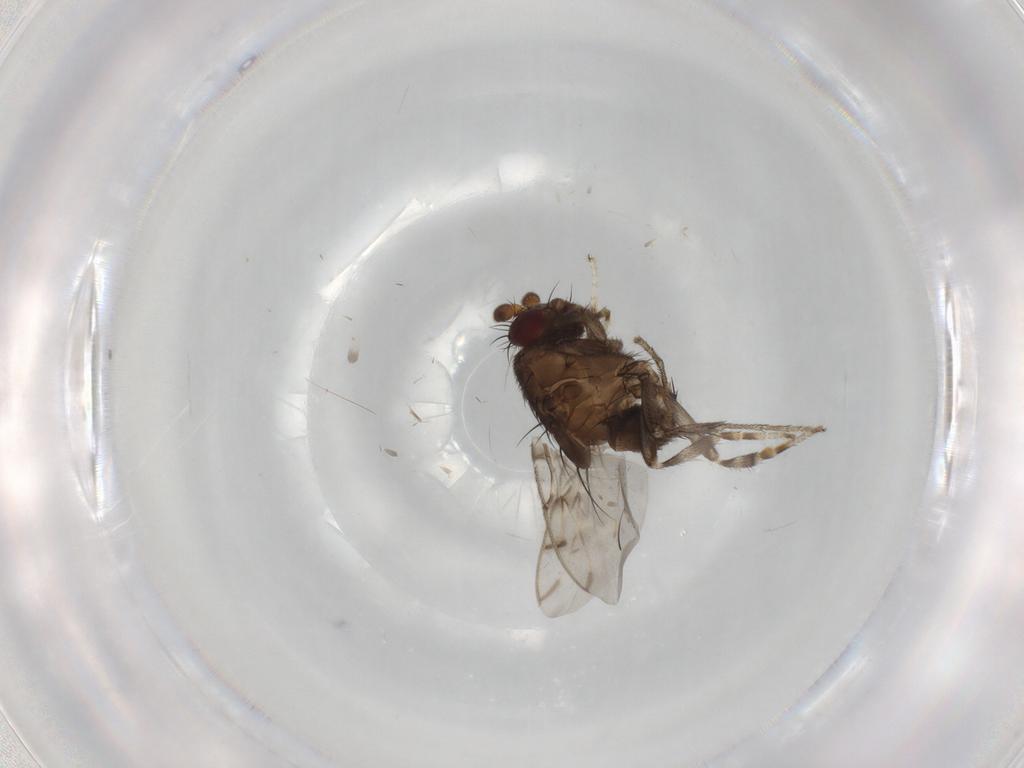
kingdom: Animalia
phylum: Arthropoda
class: Insecta
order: Diptera
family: Sphaeroceridae
